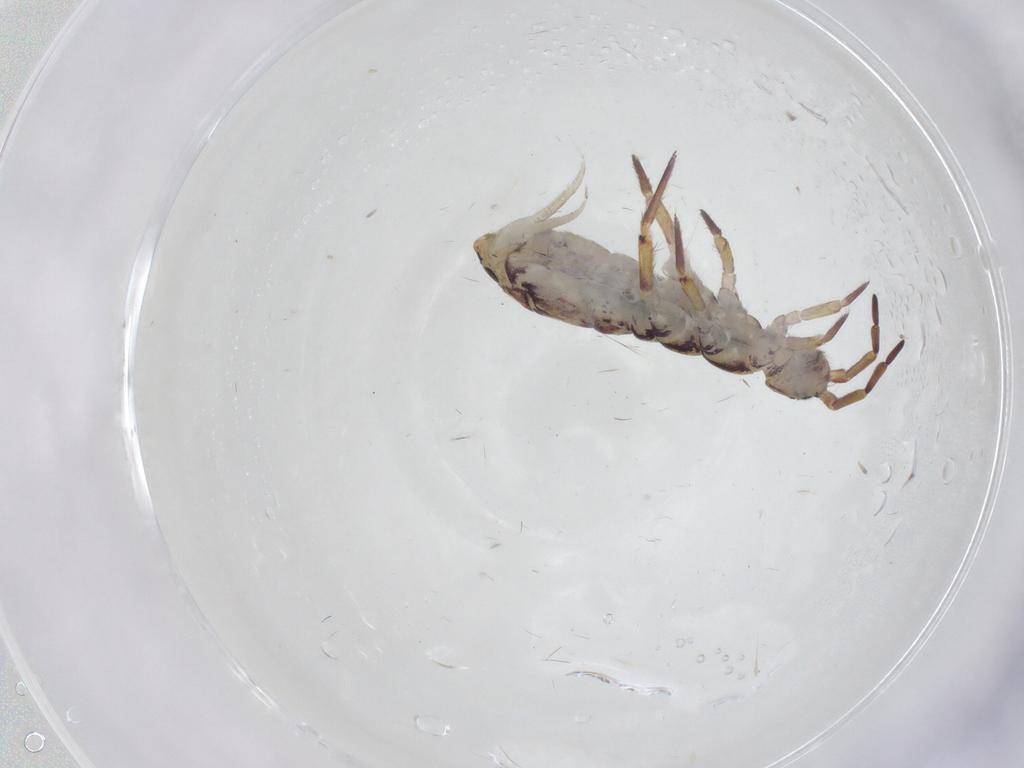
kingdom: Animalia
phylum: Arthropoda
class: Collembola
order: Entomobryomorpha
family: Isotomidae
